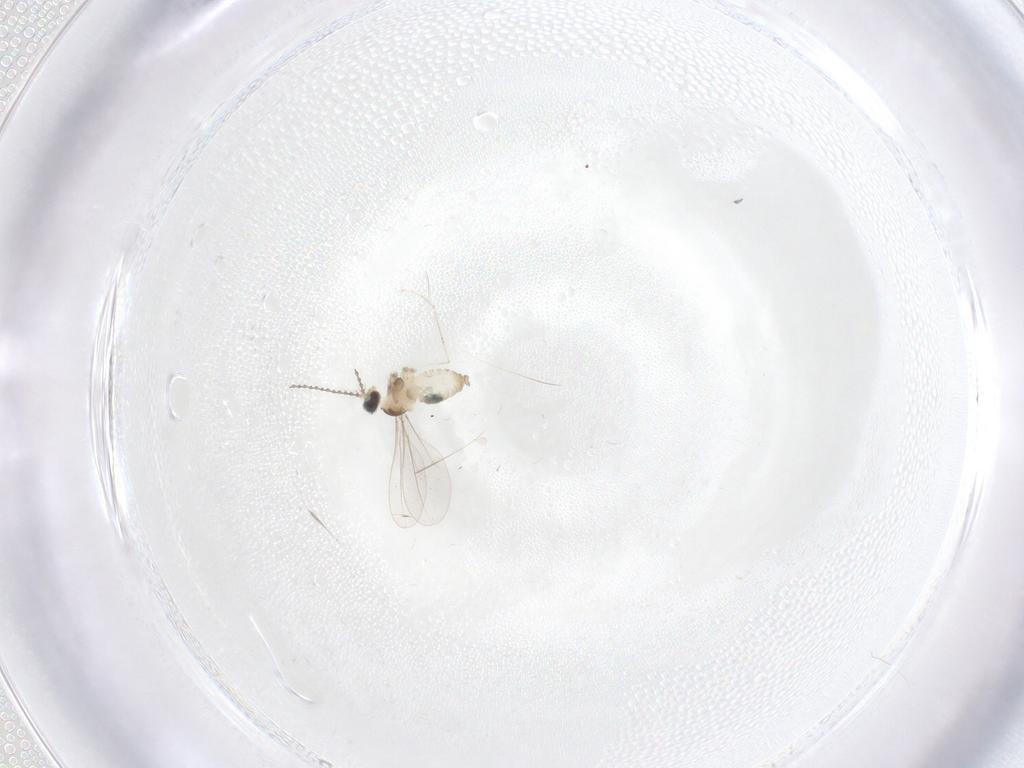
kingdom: Animalia
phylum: Arthropoda
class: Insecta
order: Diptera
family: Cecidomyiidae
